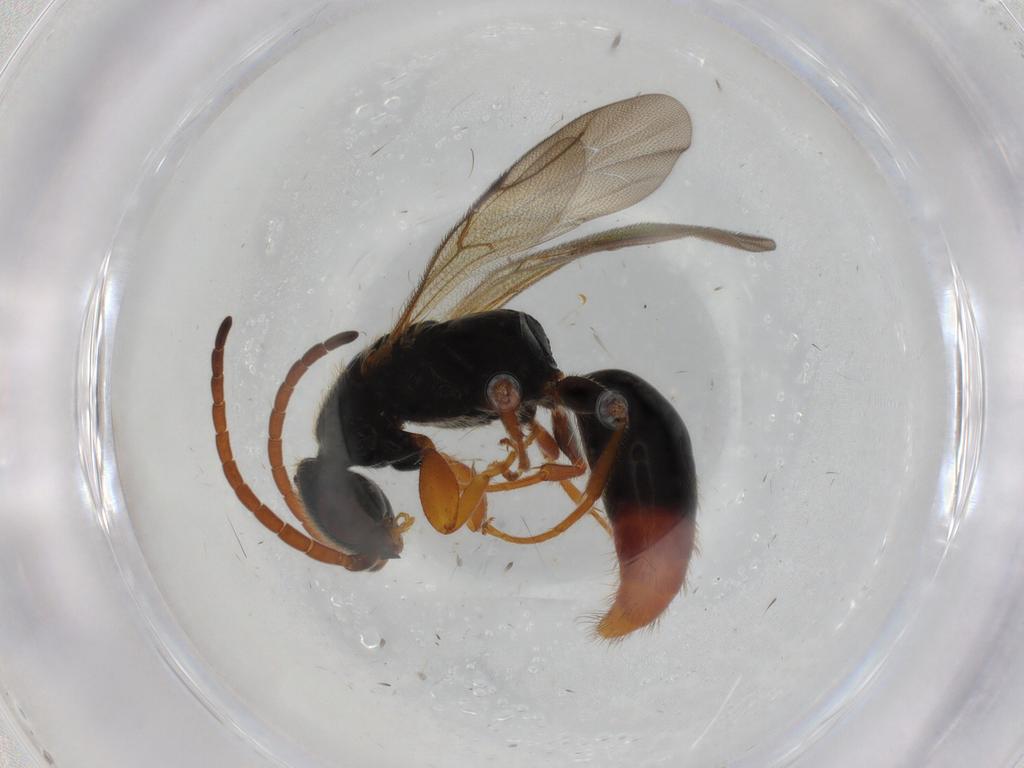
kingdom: Animalia
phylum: Arthropoda
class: Insecta
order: Hymenoptera
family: Bethylidae
